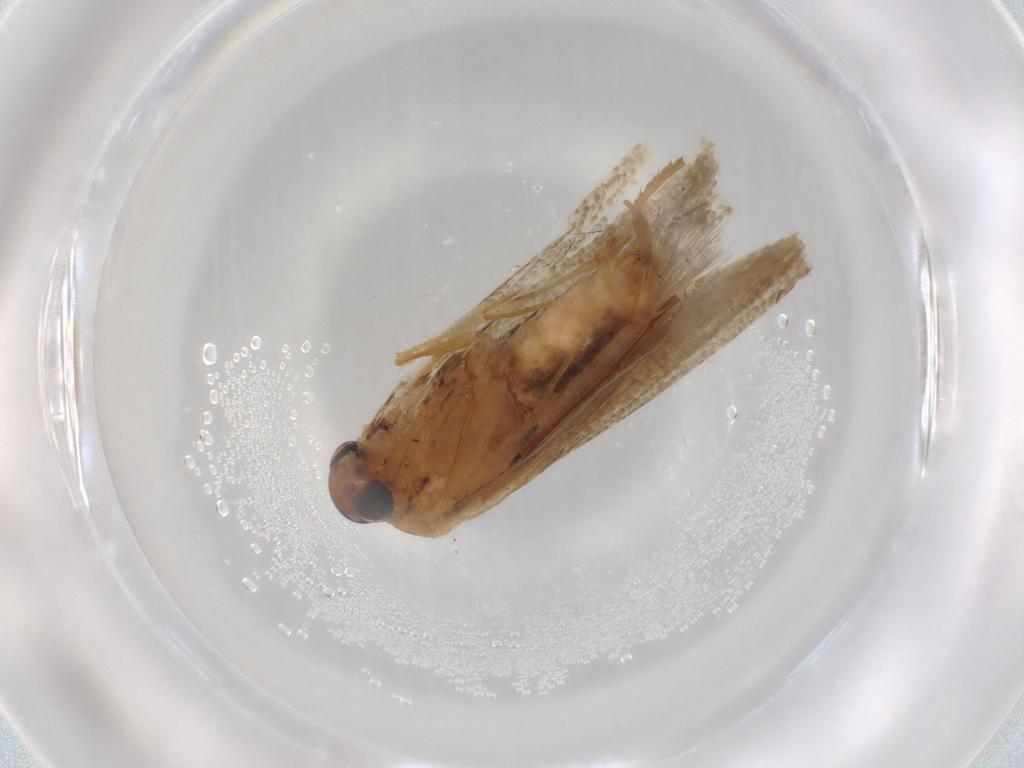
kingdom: Animalia
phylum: Arthropoda
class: Insecta
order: Lepidoptera
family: Blastobasidae
